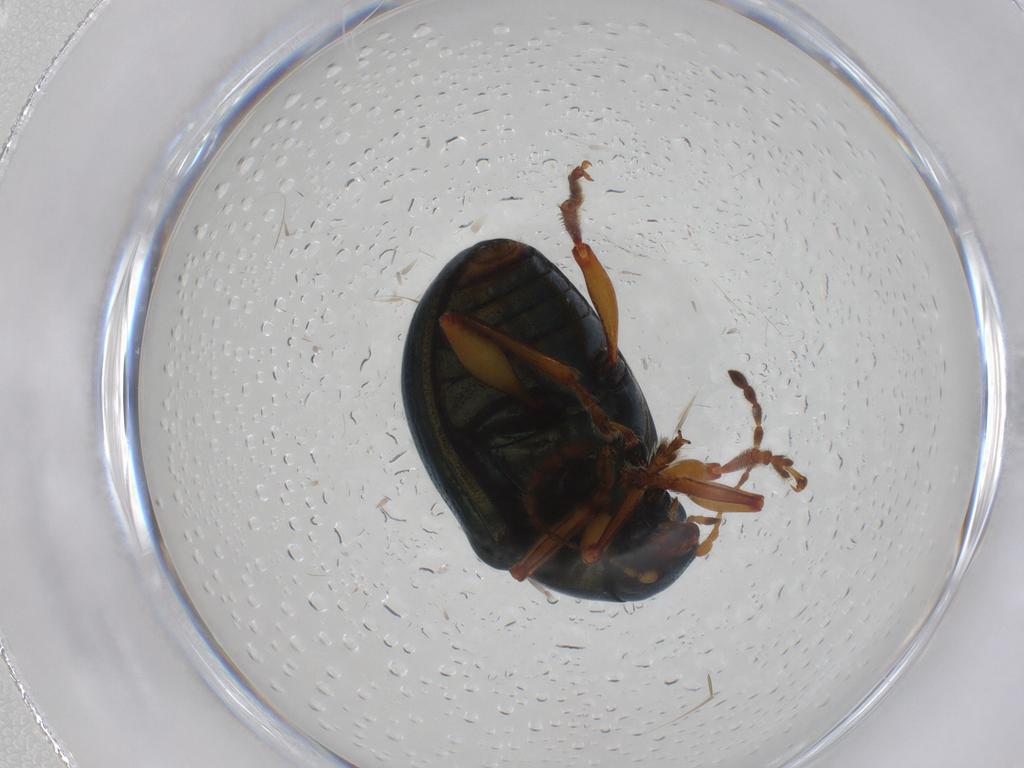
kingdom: Animalia
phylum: Arthropoda
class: Insecta
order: Coleoptera
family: Chrysomelidae
